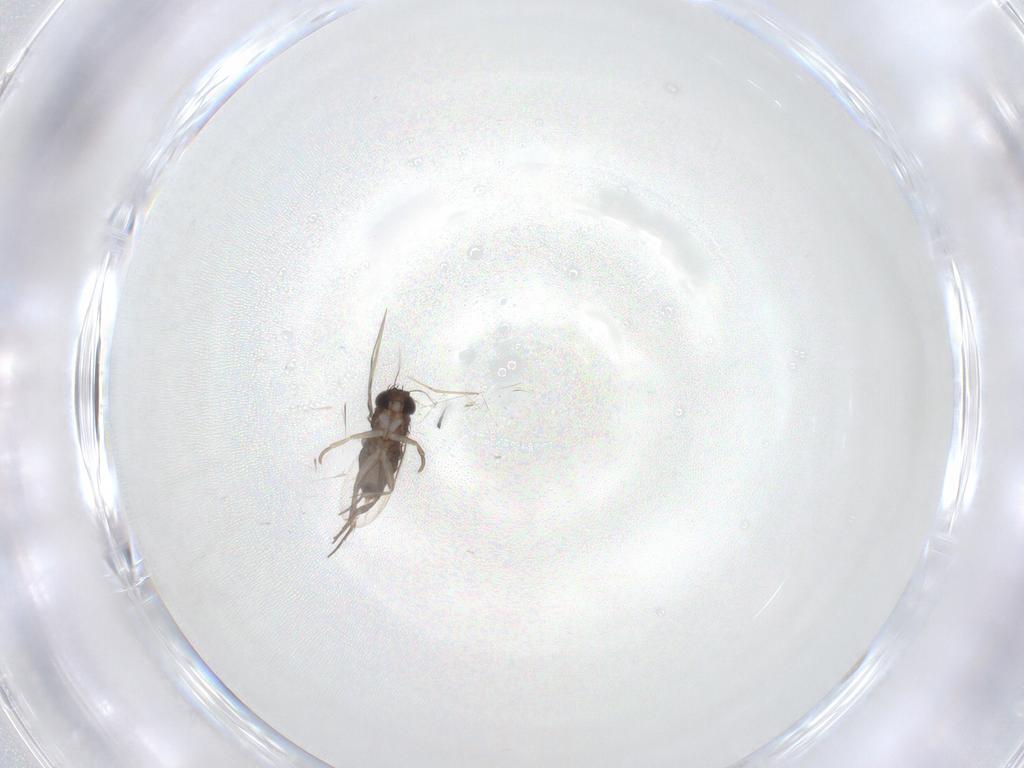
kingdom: Animalia
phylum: Arthropoda
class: Insecta
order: Diptera
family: Phoridae
